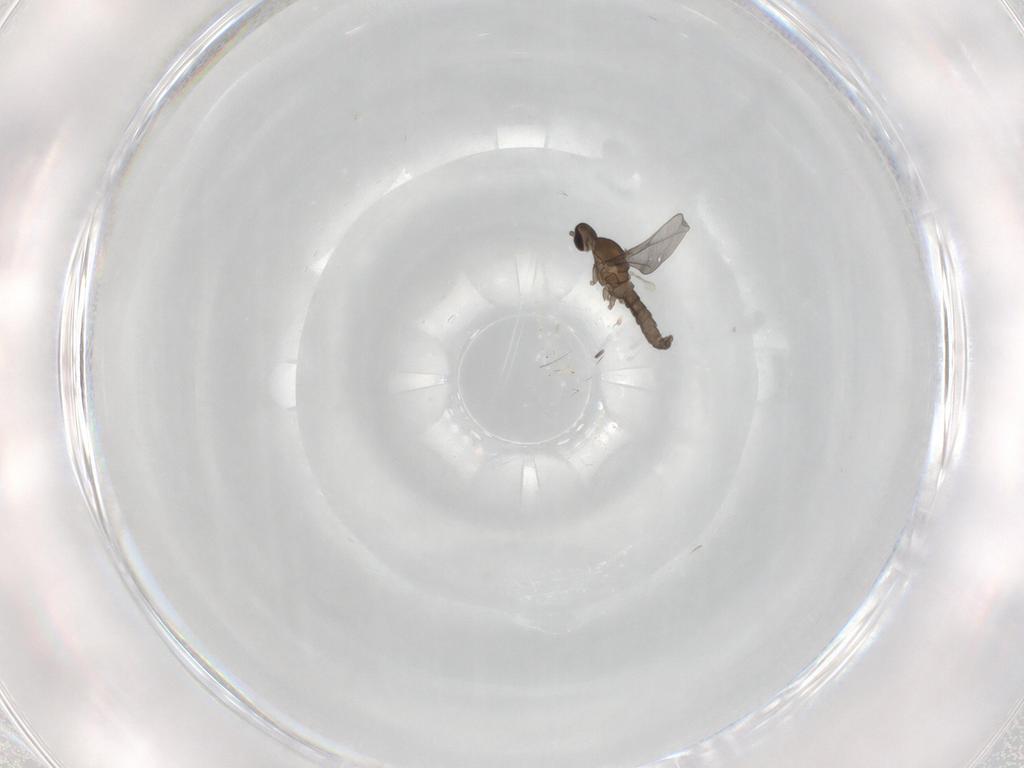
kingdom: Animalia
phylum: Arthropoda
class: Insecta
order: Diptera
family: Cecidomyiidae
